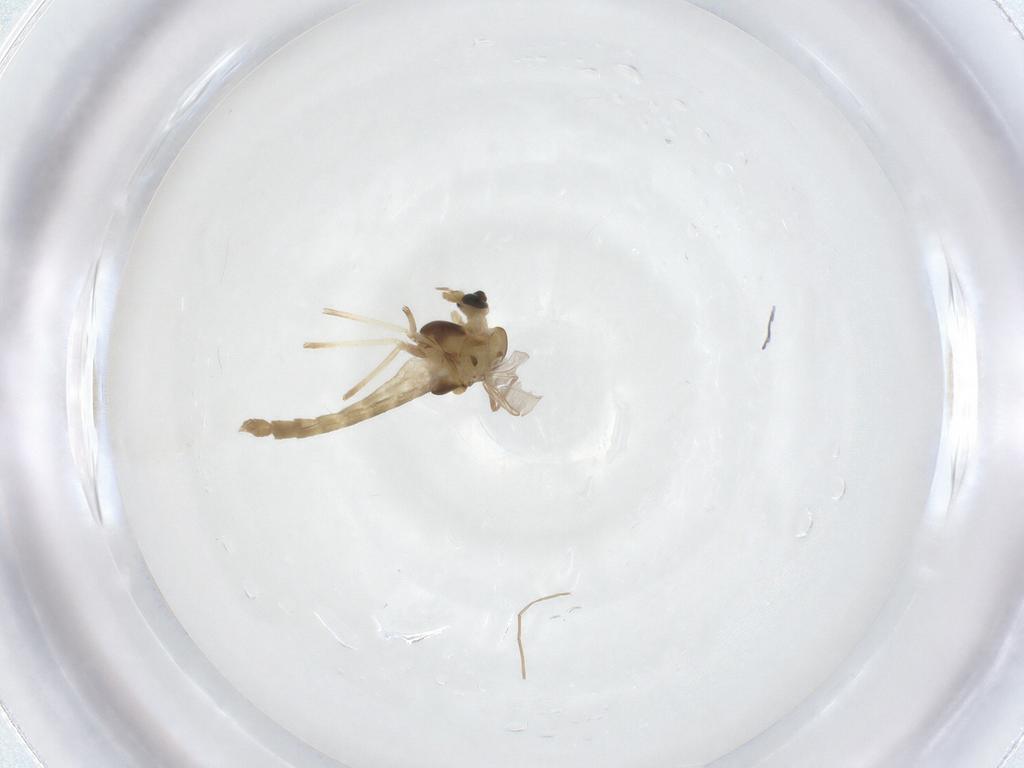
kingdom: Animalia
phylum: Arthropoda
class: Insecta
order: Diptera
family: Chironomidae
